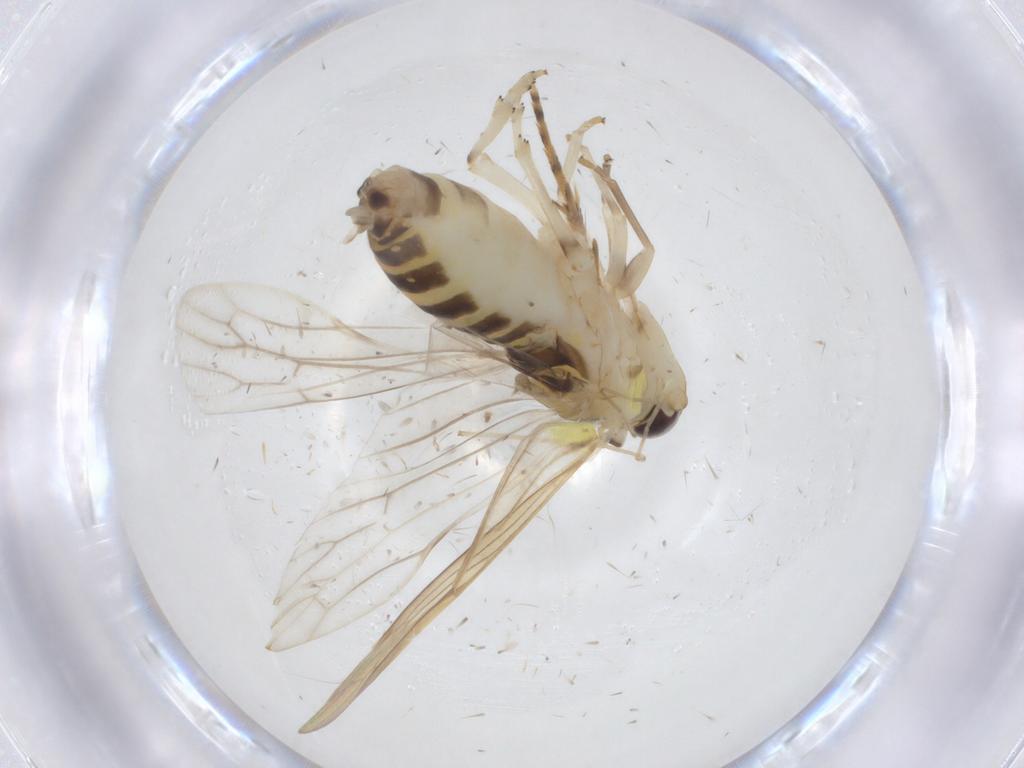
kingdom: Animalia
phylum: Arthropoda
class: Insecta
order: Hemiptera
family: Achilidae
